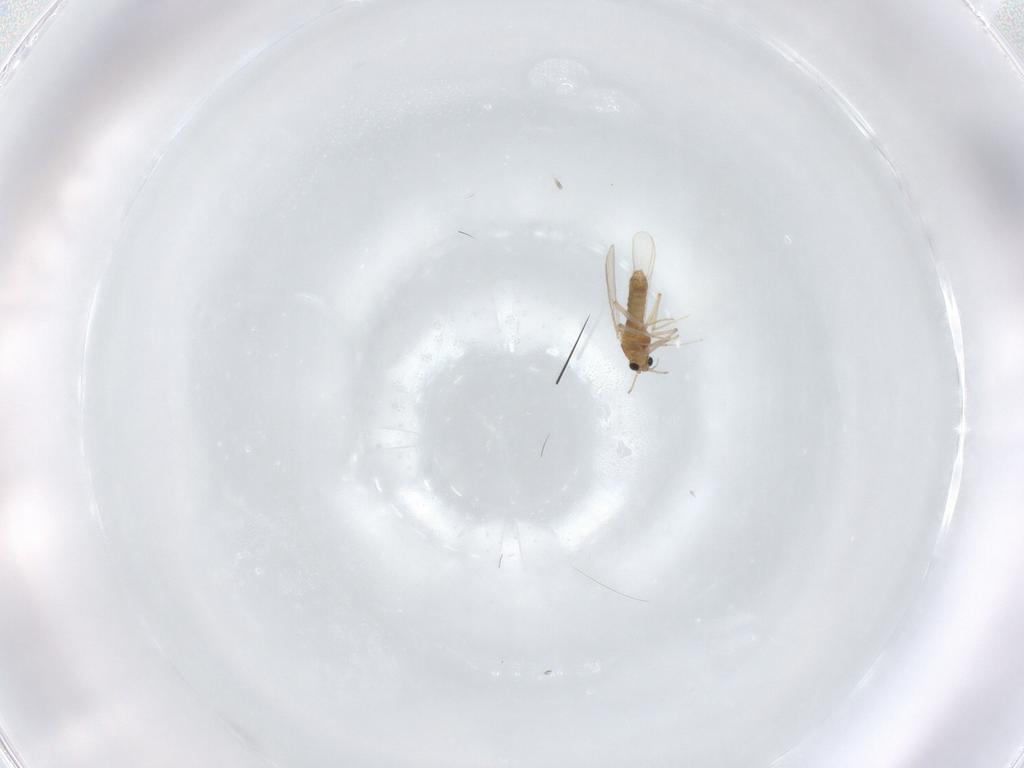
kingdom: Animalia
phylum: Arthropoda
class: Insecta
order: Diptera
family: Chironomidae
